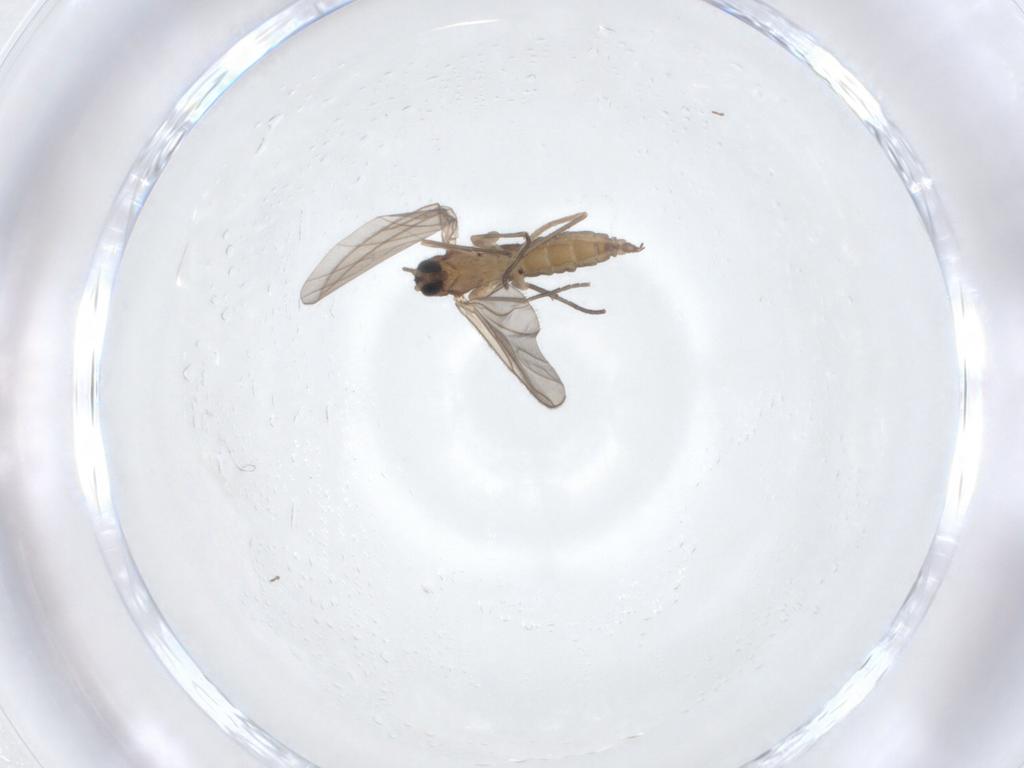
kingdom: Animalia
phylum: Arthropoda
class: Insecta
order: Diptera
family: Sciaridae
